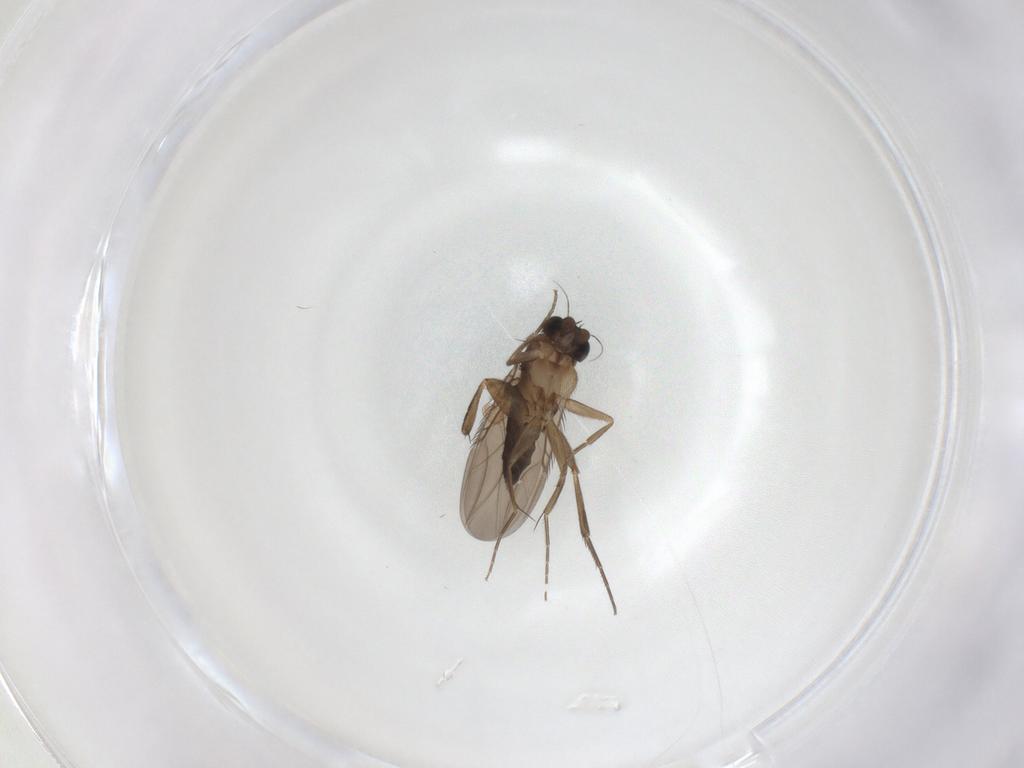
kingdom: Animalia
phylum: Arthropoda
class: Insecta
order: Diptera
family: Phoridae
